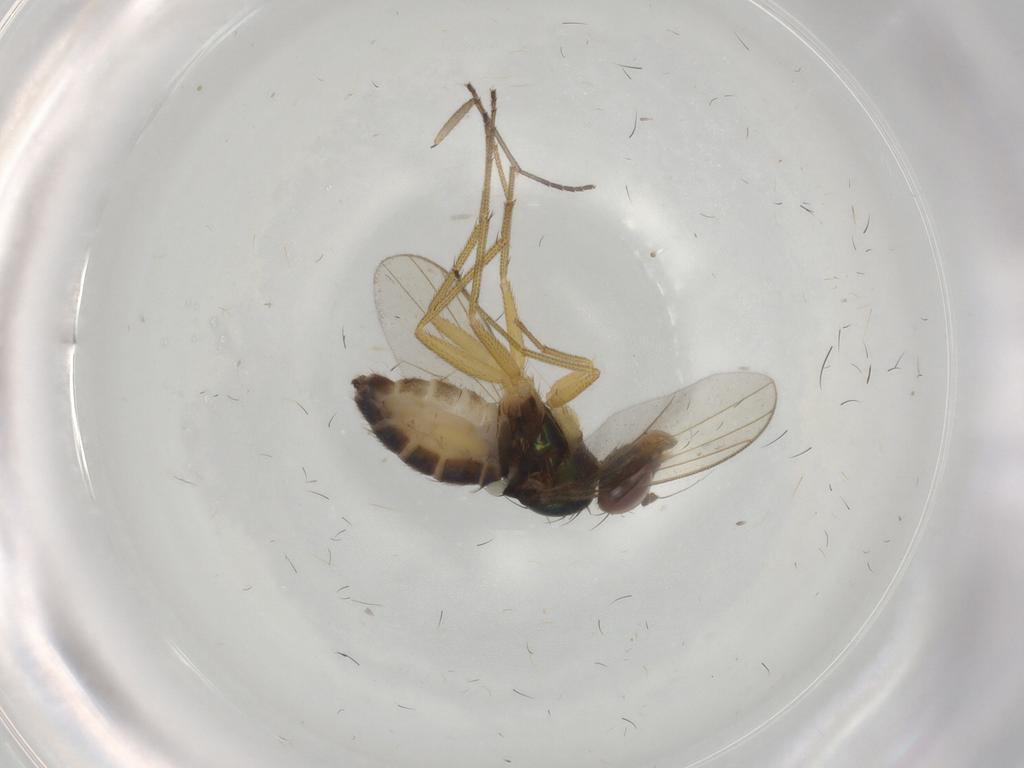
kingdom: Animalia
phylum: Arthropoda
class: Insecta
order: Diptera
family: Dolichopodidae
